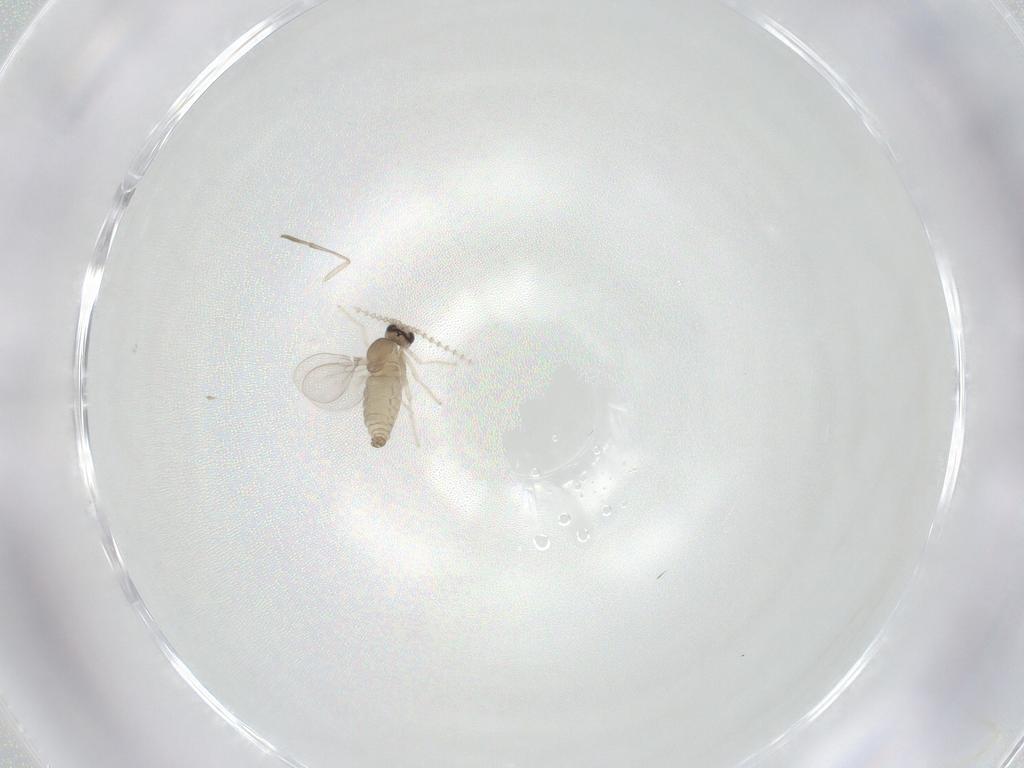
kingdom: Animalia
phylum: Arthropoda
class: Insecta
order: Diptera
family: Cecidomyiidae
